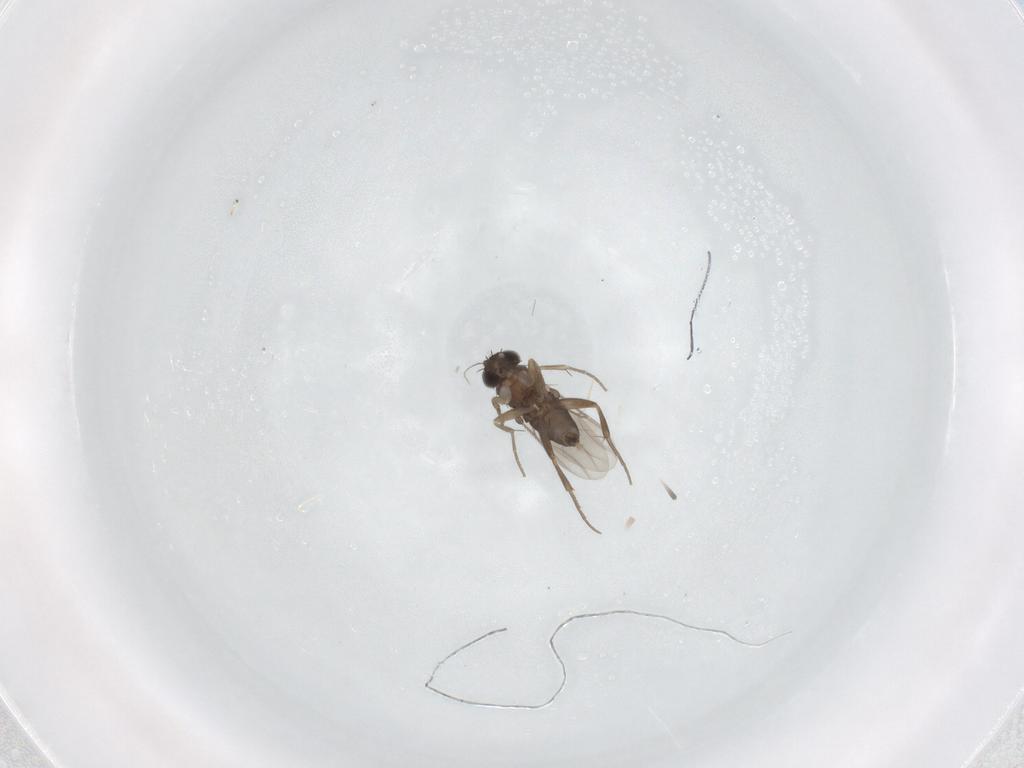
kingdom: Animalia
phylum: Arthropoda
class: Insecta
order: Diptera
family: Phoridae
